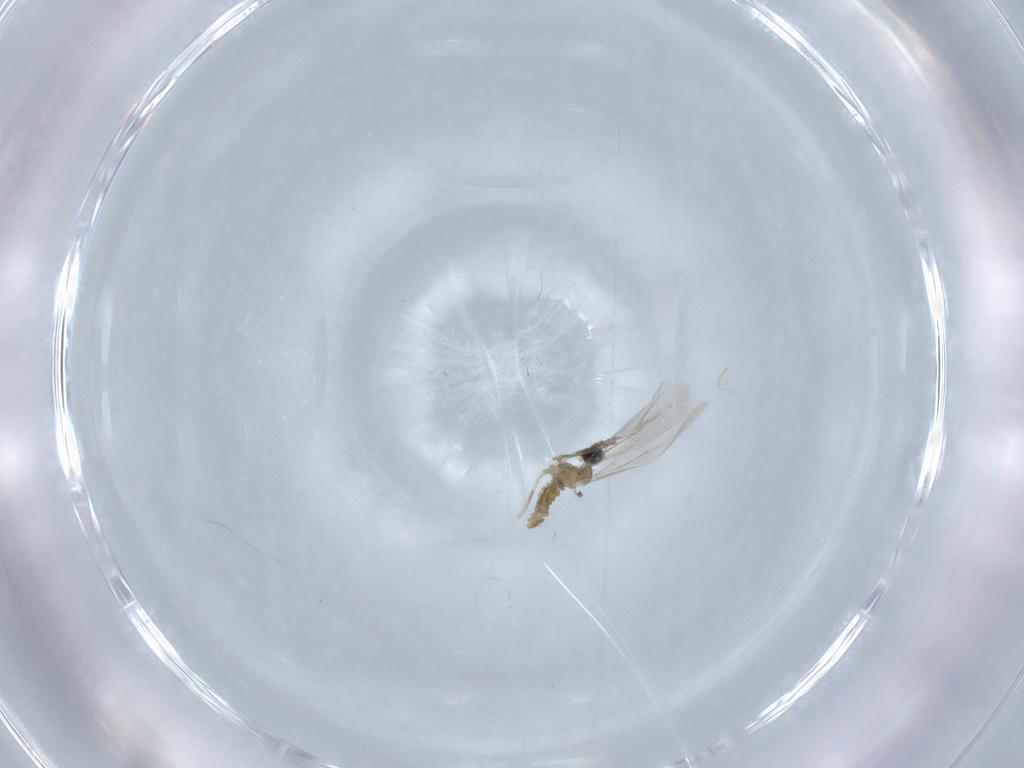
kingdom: Animalia
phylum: Arthropoda
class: Insecta
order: Diptera
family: Cecidomyiidae
